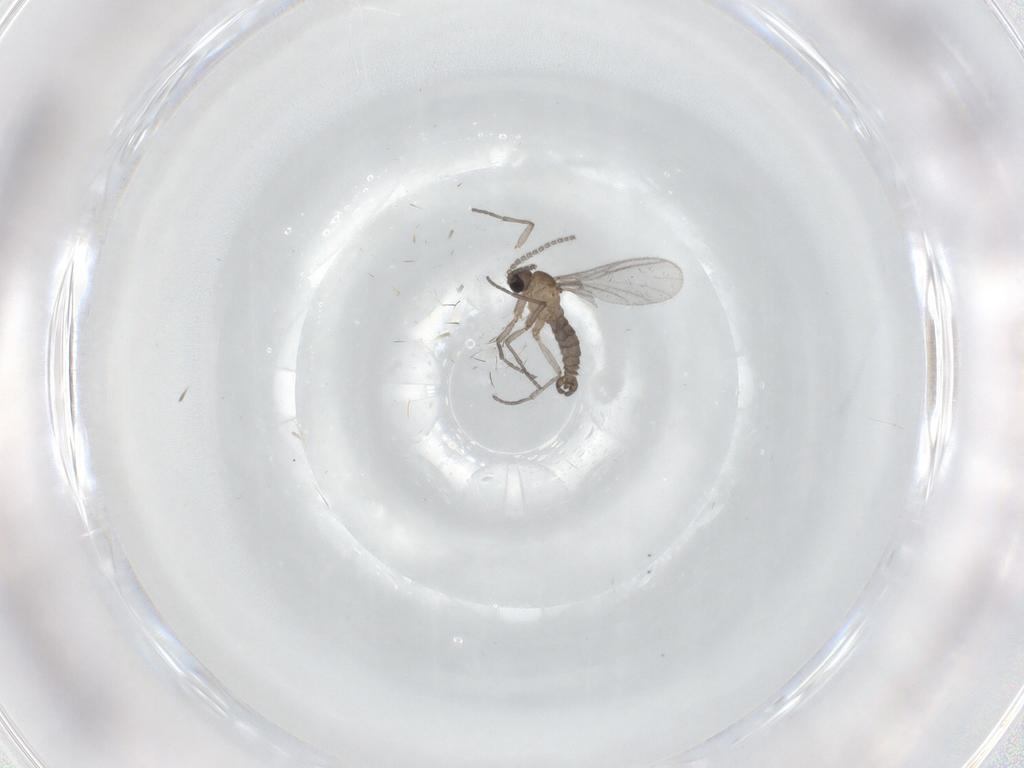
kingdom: Animalia
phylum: Arthropoda
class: Insecta
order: Diptera
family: Sciaridae
